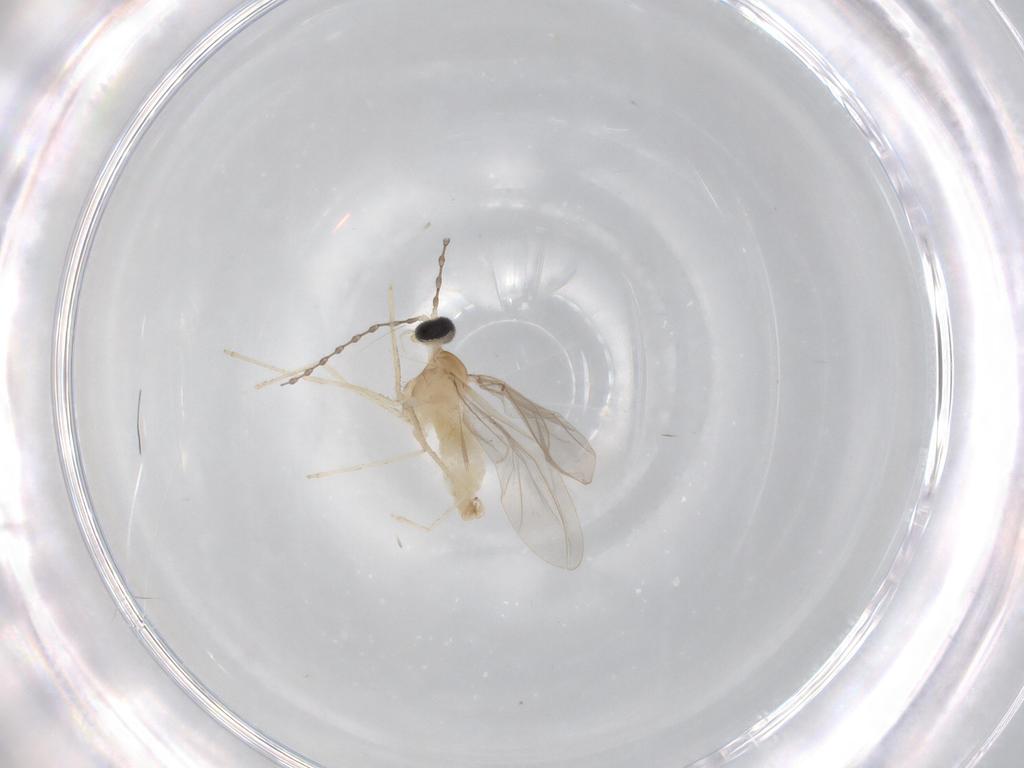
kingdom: Animalia
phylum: Arthropoda
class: Insecta
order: Diptera
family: Cecidomyiidae
